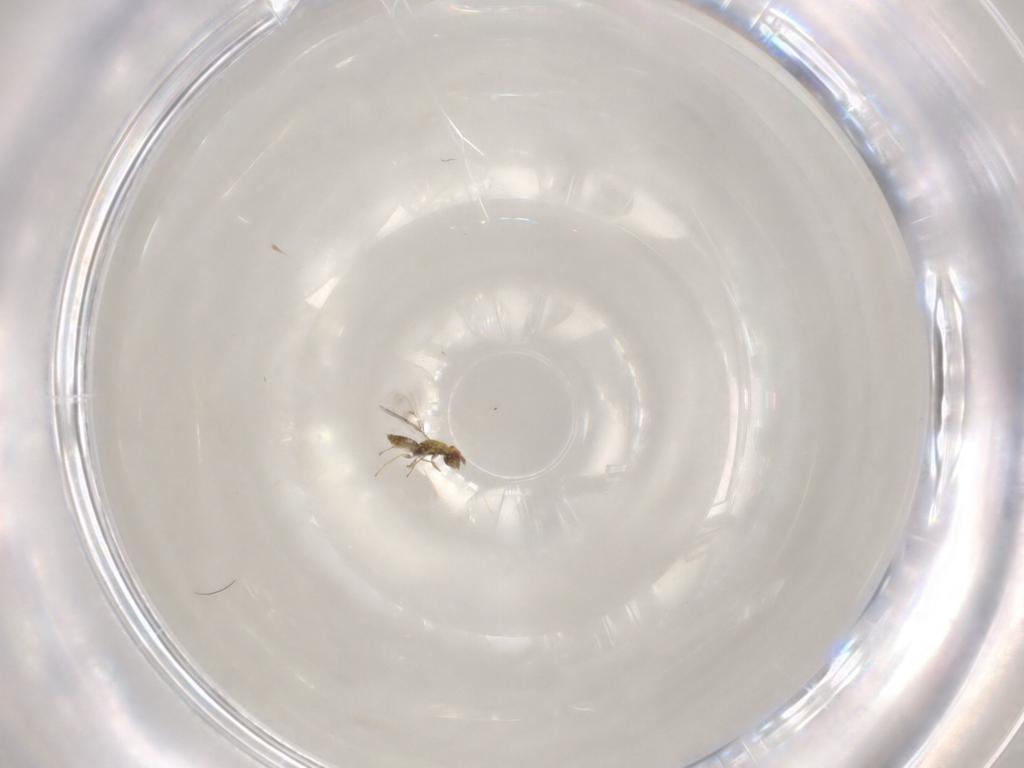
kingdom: Animalia
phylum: Arthropoda
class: Insecta
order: Hymenoptera
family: Eulophidae
